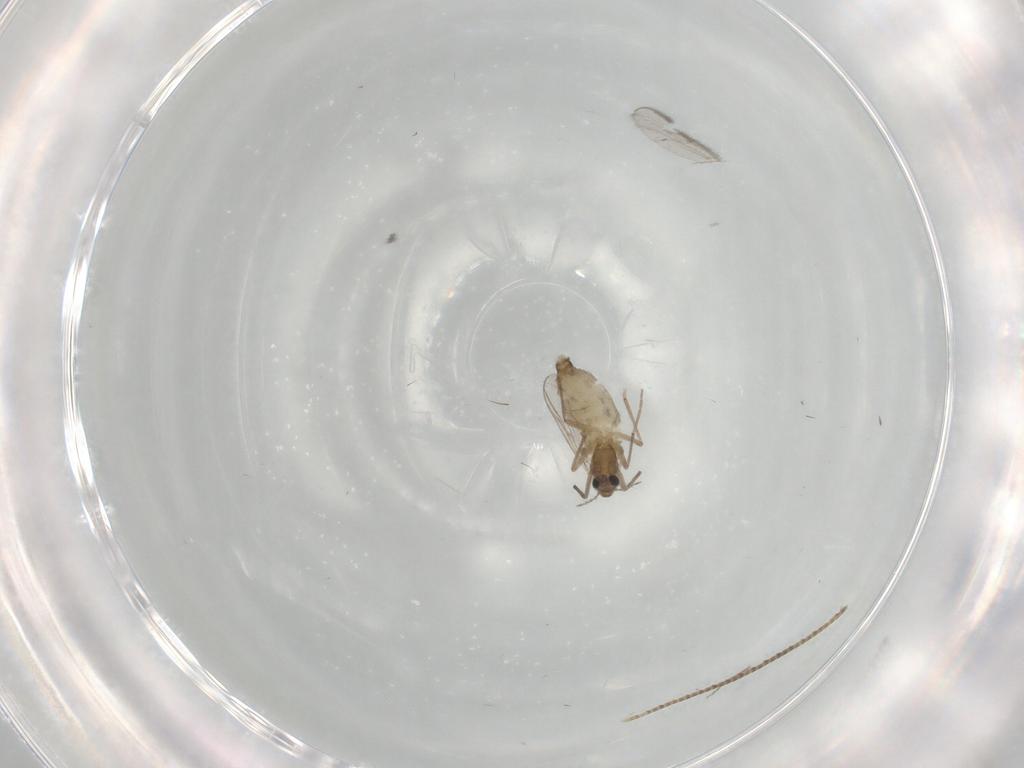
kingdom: Animalia
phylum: Arthropoda
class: Insecta
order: Diptera
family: Chironomidae
